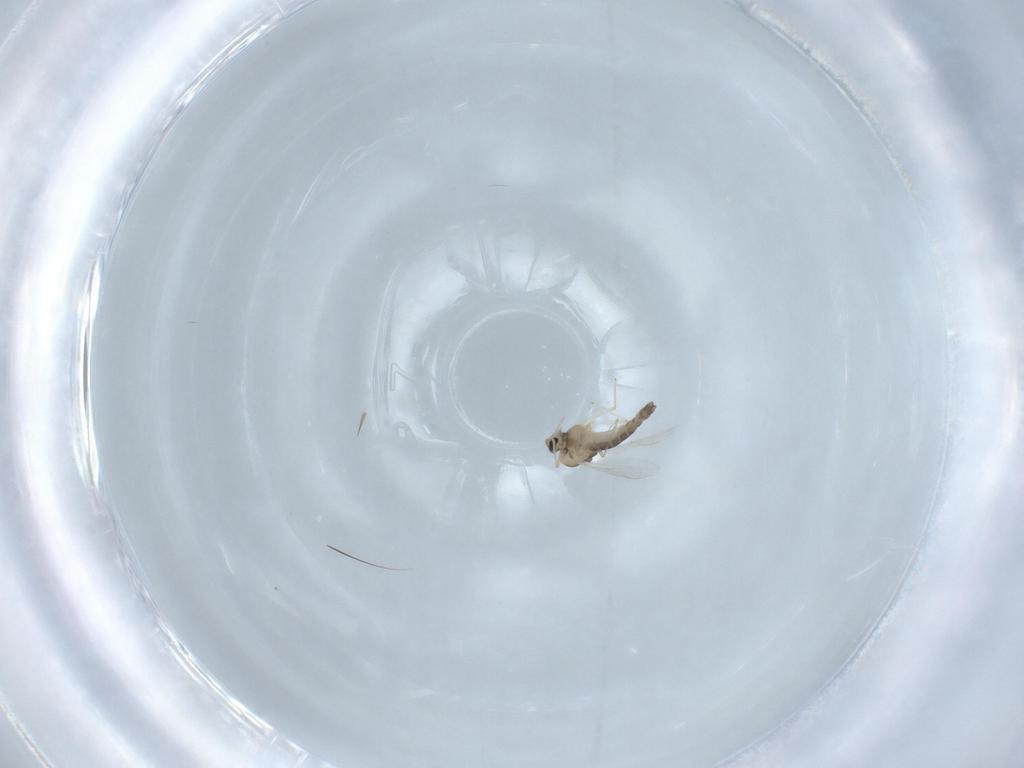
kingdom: Animalia
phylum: Arthropoda
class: Insecta
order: Diptera
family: Chironomidae
